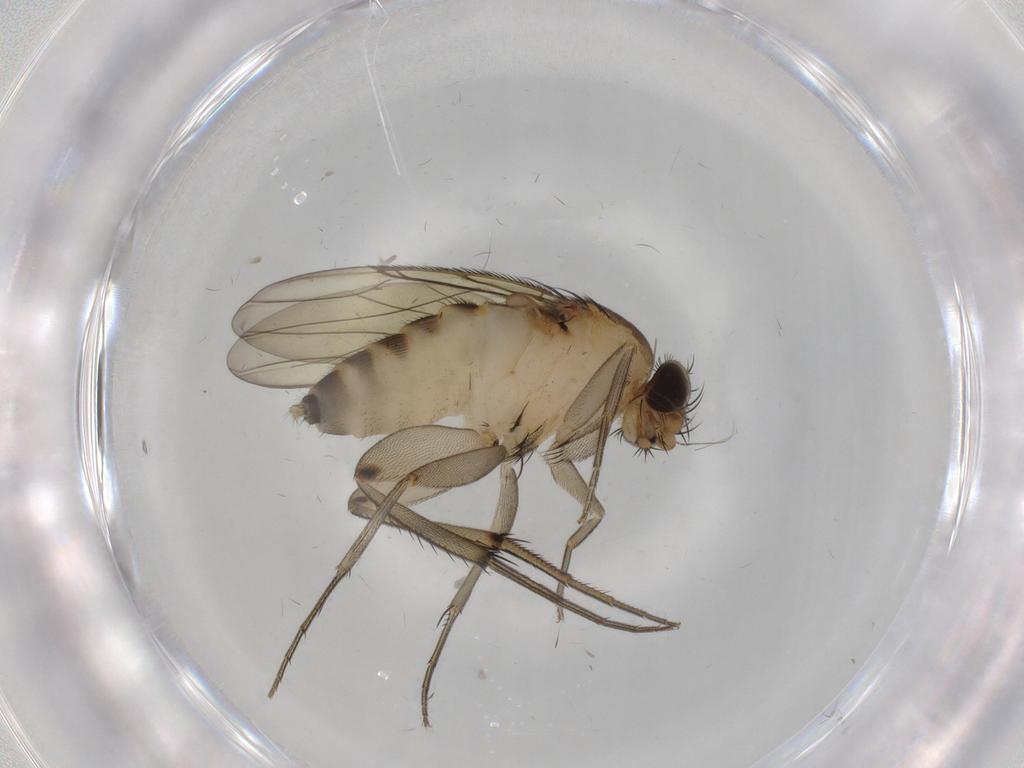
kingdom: Animalia
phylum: Arthropoda
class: Insecta
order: Diptera
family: Phoridae
